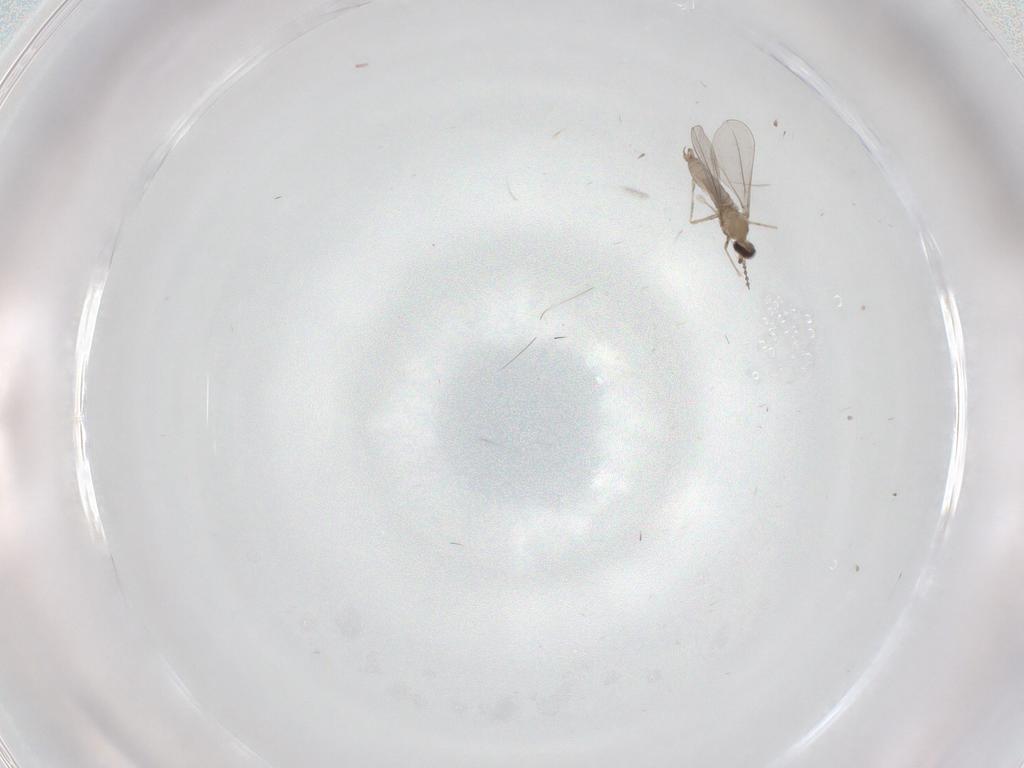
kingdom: Animalia
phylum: Arthropoda
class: Insecta
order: Diptera
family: Cecidomyiidae
